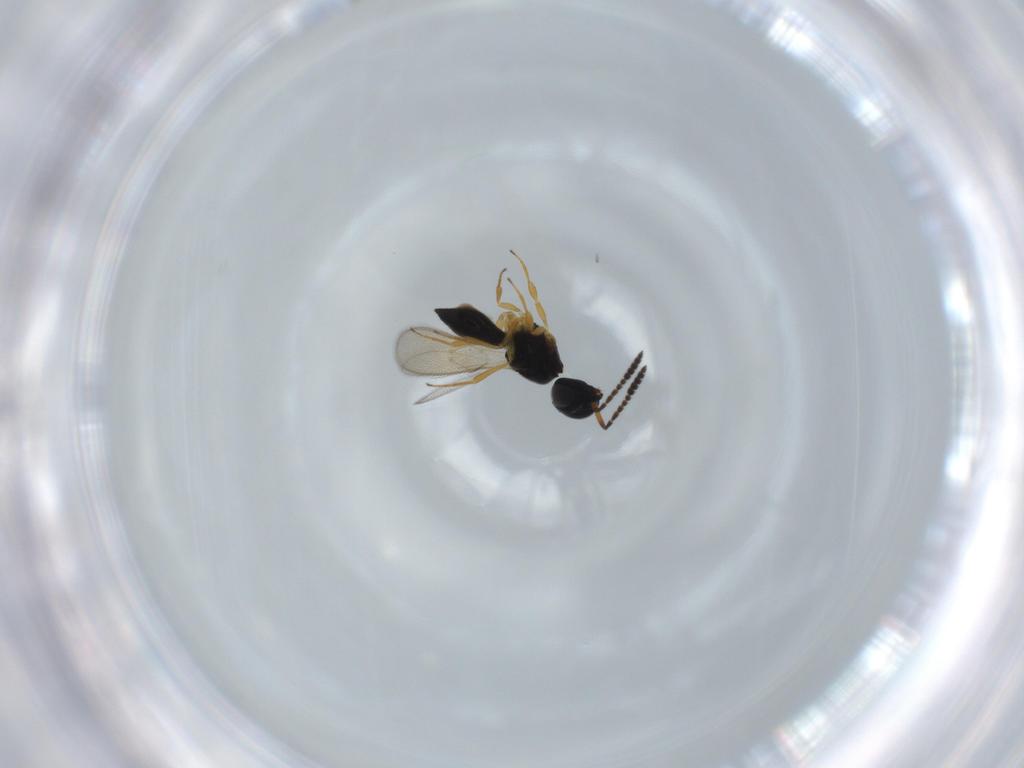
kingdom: Animalia
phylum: Arthropoda
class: Insecta
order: Hymenoptera
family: Scelionidae
